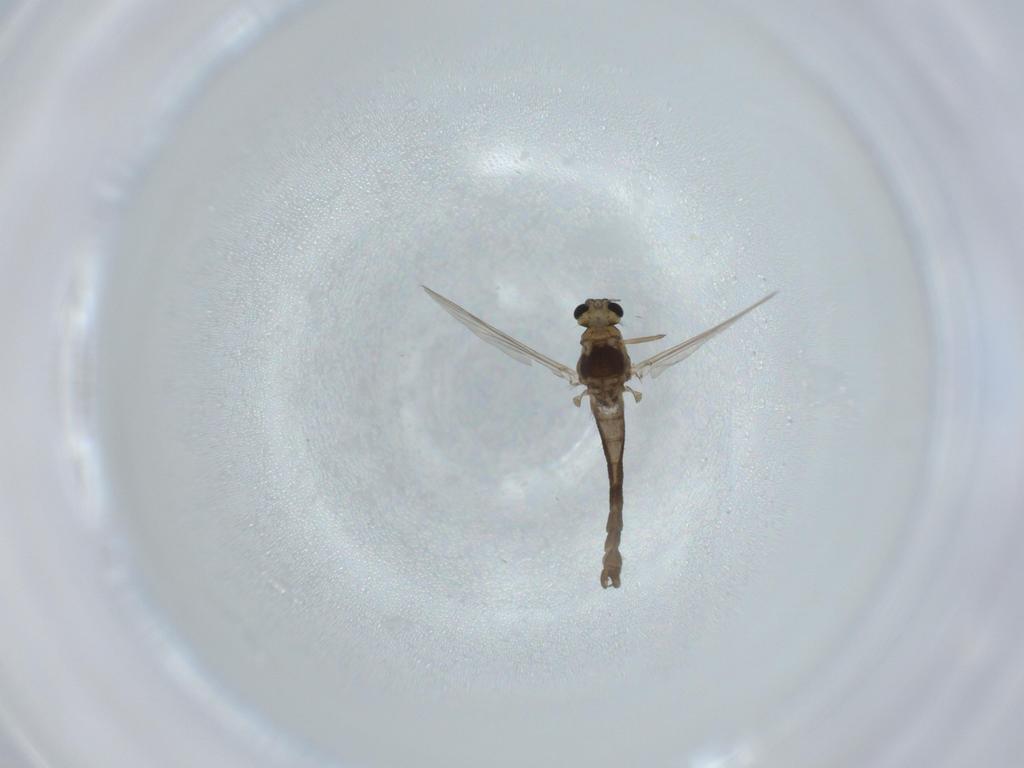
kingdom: Animalia
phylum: Arthropoda
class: Insecta
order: Diptera
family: Chironomidae
